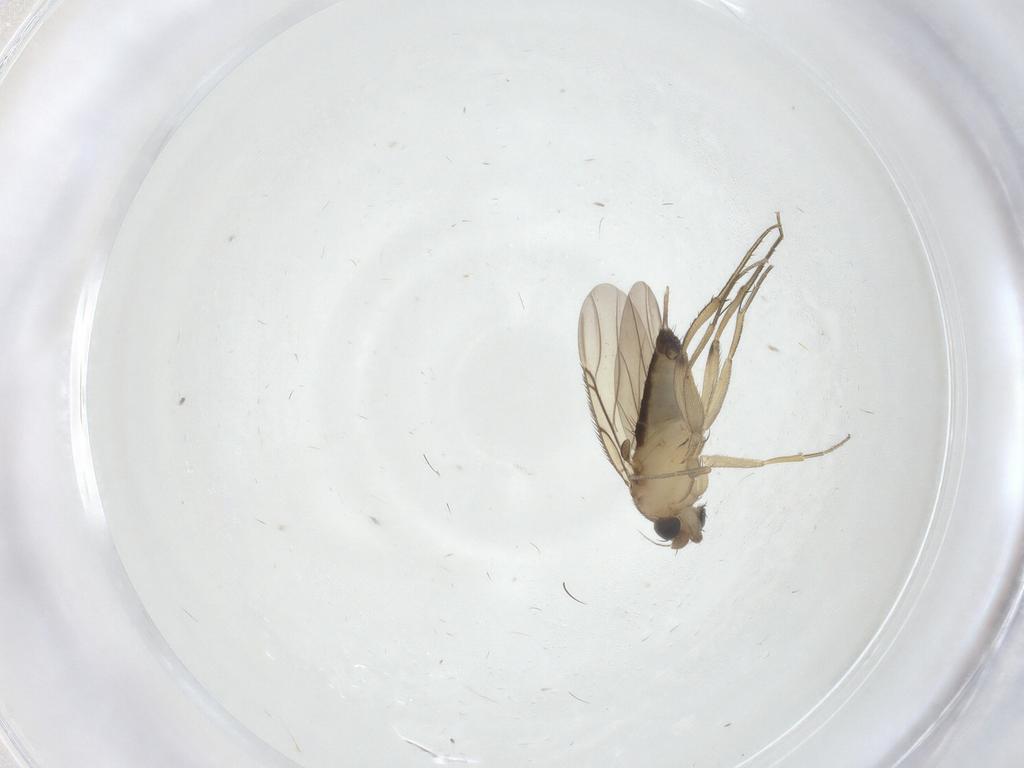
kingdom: Animalia
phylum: Arthropoda
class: Insecta
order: Diptera
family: Phoridae
